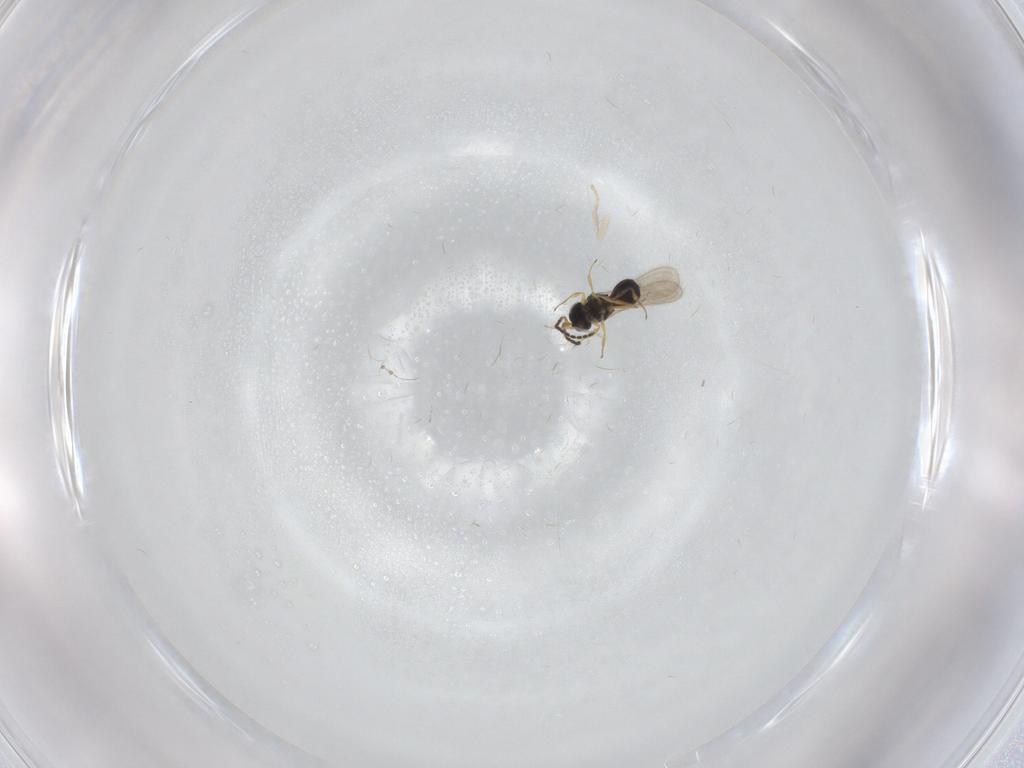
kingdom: Animalia
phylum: Arthropoda
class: Insecta
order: Hymenoptera
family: Scelionidae
